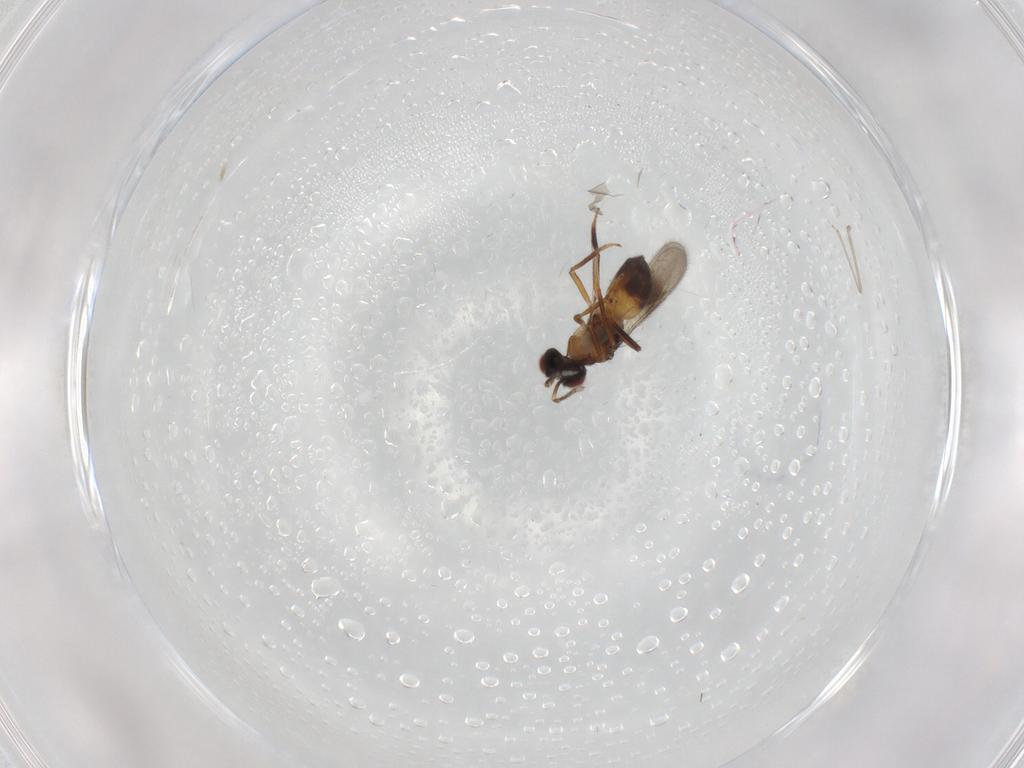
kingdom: Animalia
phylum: Arthropoda
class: Insecta
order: Hymenoptera
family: Eulophidae
